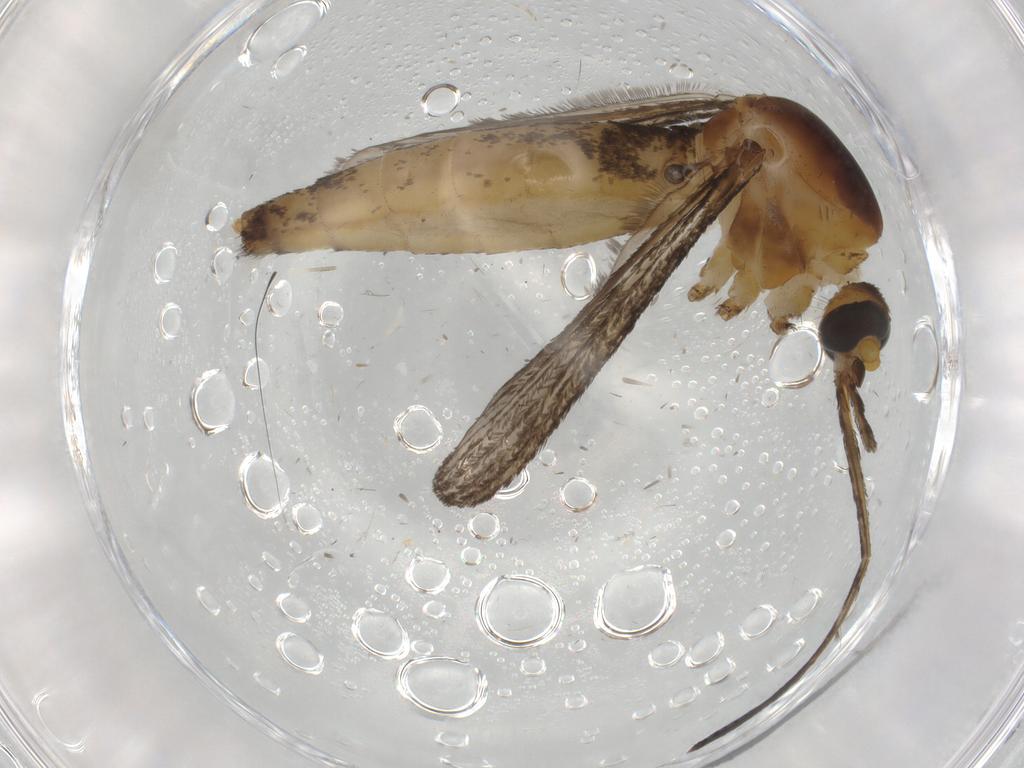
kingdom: Animalia
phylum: Arthropoda
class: Insecta
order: Diptera
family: Culicidae
